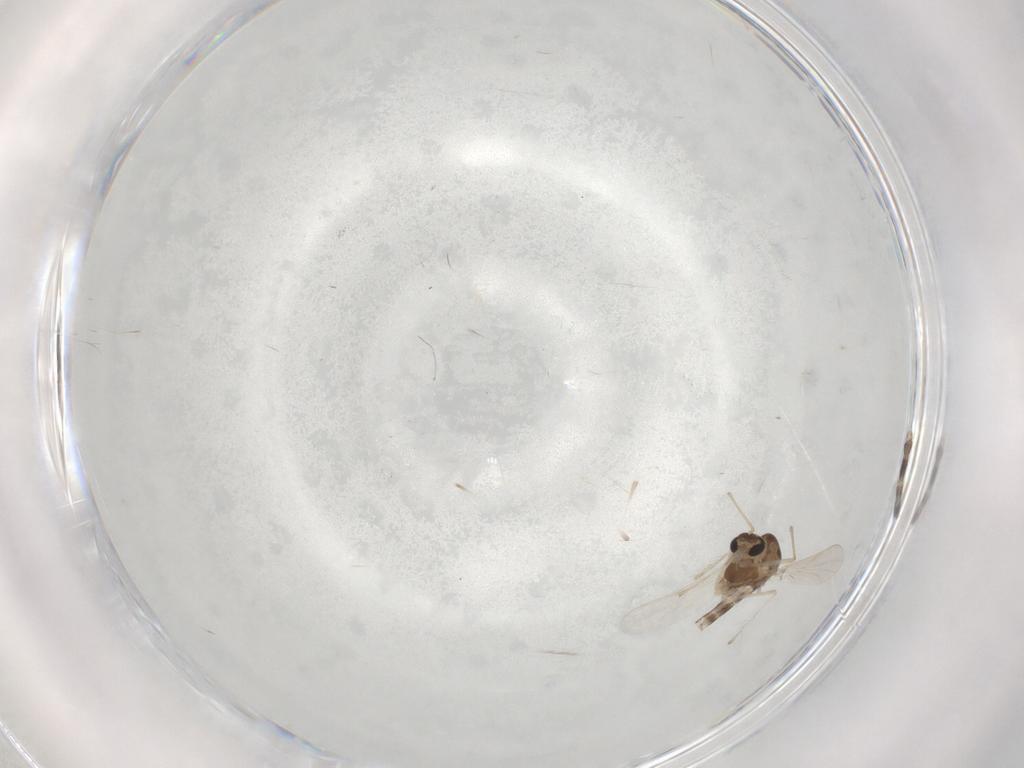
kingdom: Animalia
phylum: Arthropoda
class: Insecta
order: Diptera
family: Chironomidae
